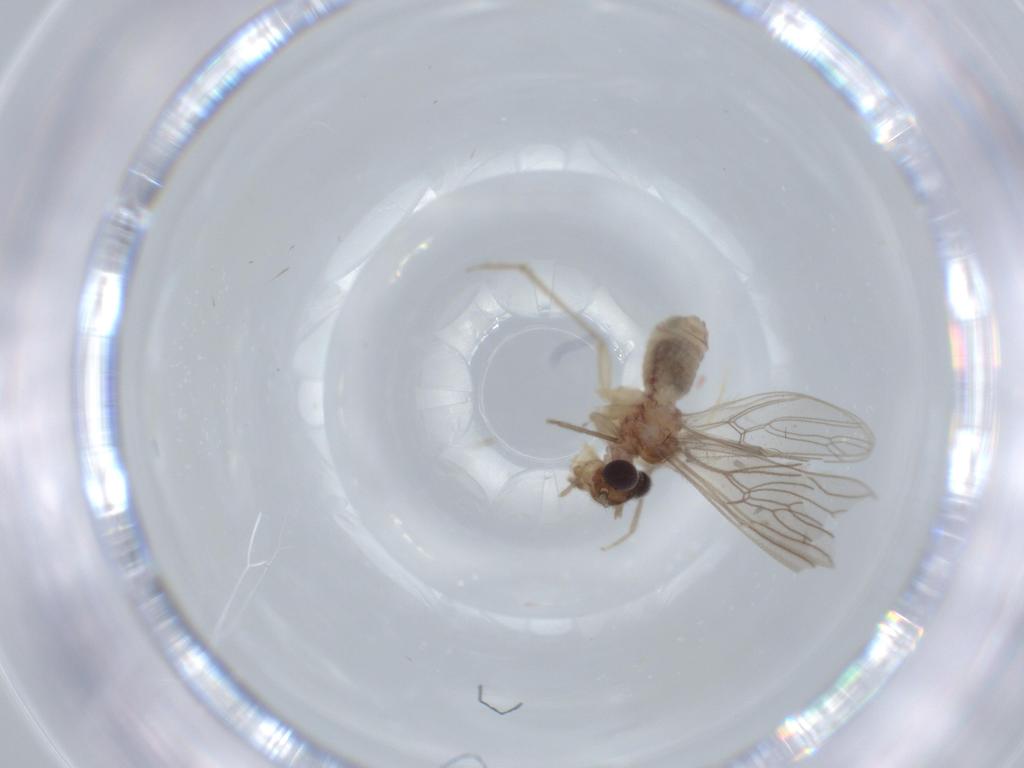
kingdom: Animalia
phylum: Arthropoda
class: Insecta
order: Psocodea
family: Cladiopsocidae
